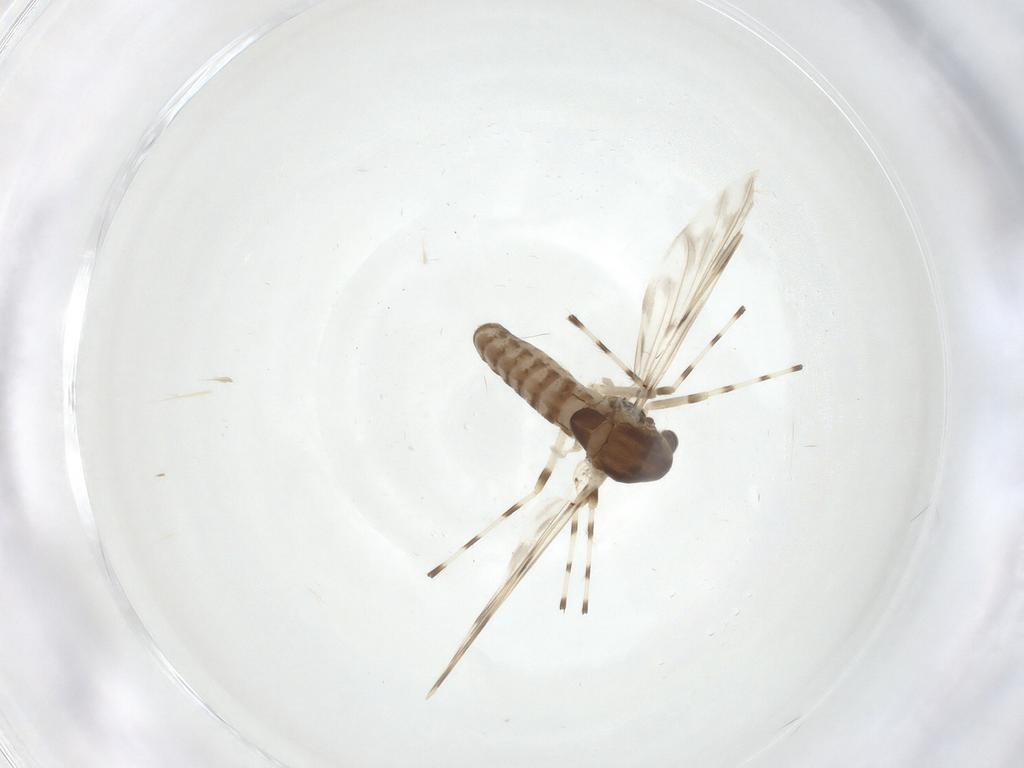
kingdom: Animalia
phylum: Arthropoda
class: Insecta
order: Diptera
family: Chironomidae
